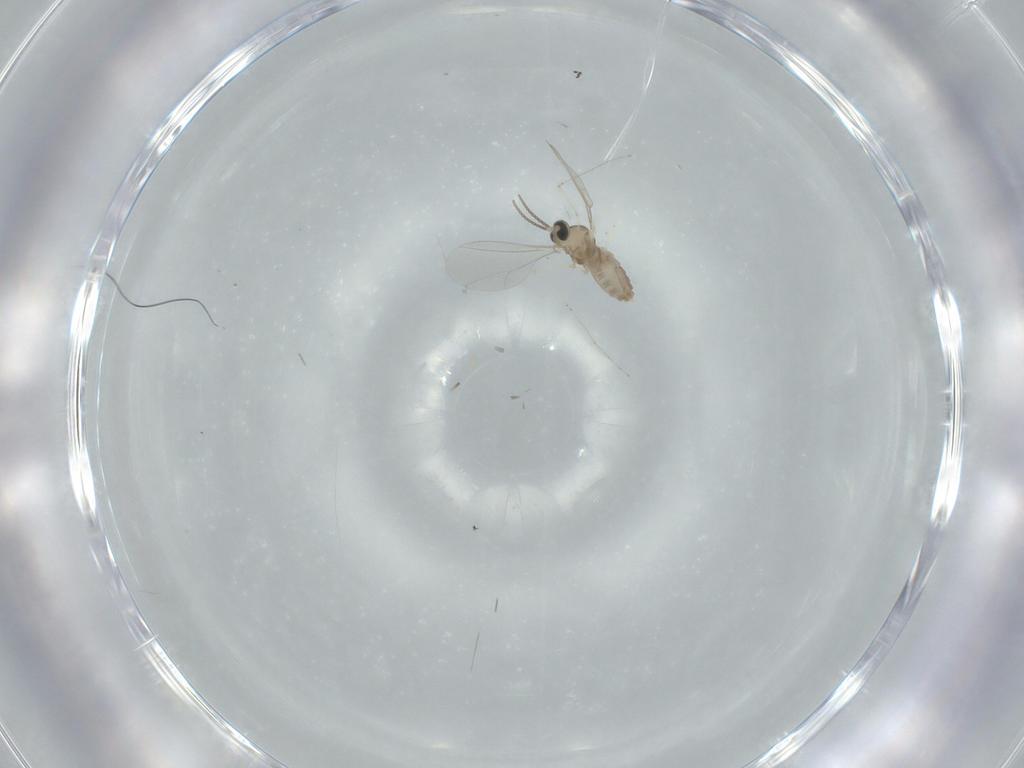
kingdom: Animalia
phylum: Arthropoda
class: Insecta
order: Diptera
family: Cecidomyiidae
